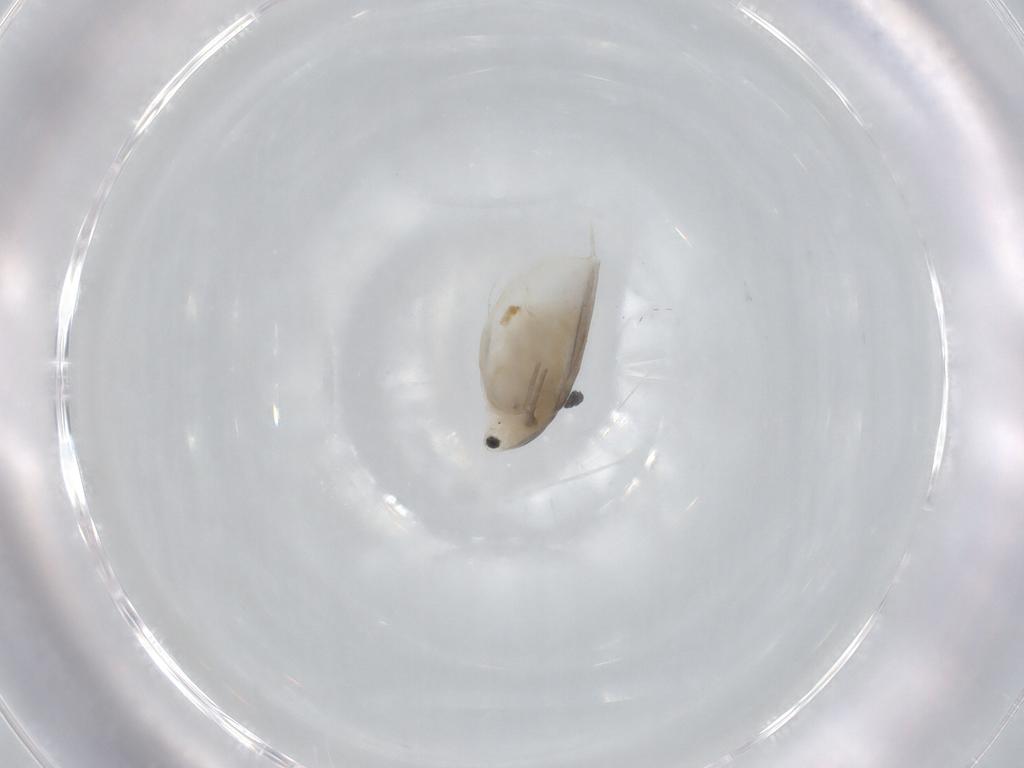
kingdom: Animalia
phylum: Arthropoda
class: Branchiopoda
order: Diplostraca
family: Daphniidae
